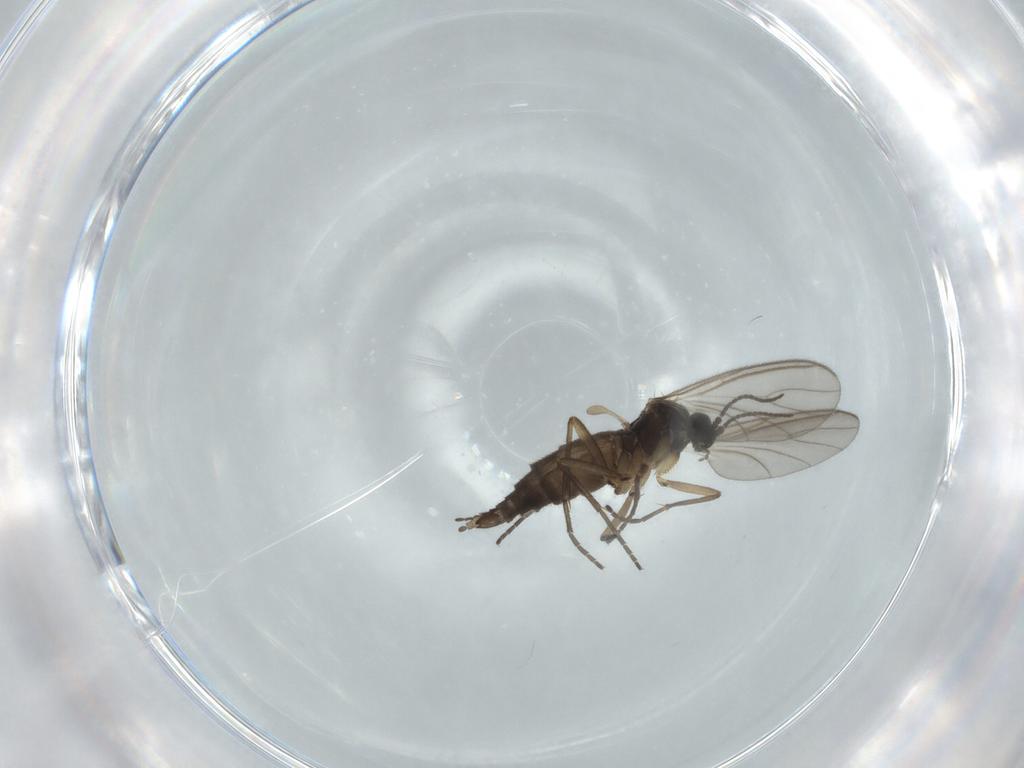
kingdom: Animalia
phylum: Arthropoda
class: Insecta
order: Diptera
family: Sciaridae
